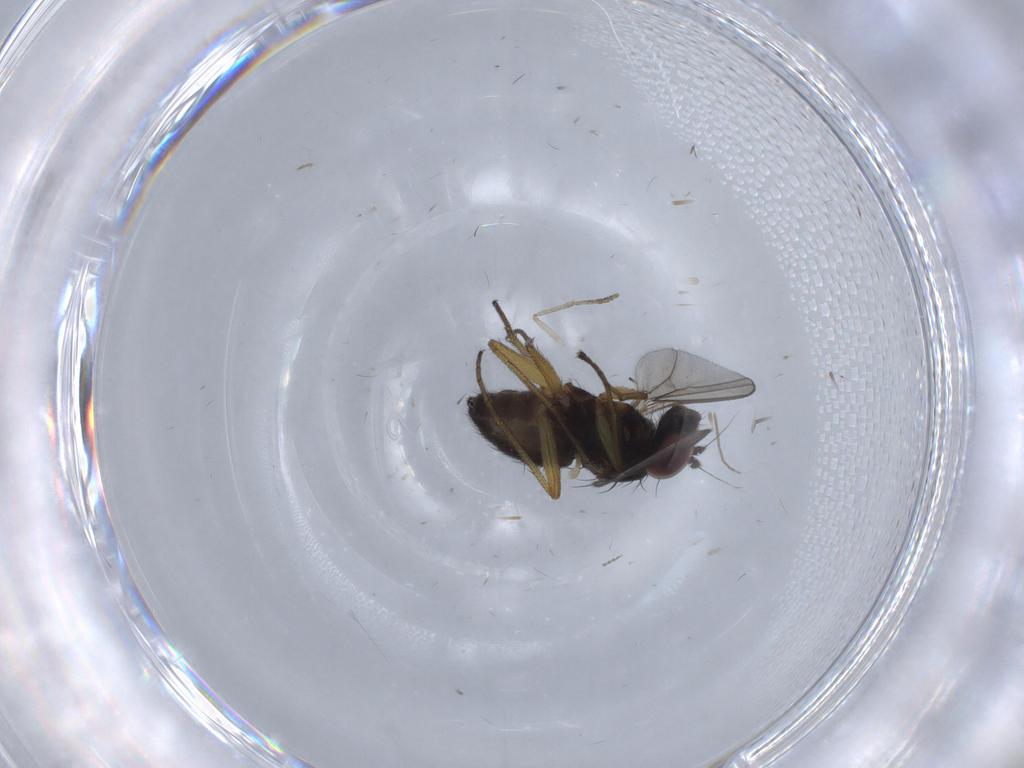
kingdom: Animalia
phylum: Arthropoda
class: Insecta
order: Diptera
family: Dolichopodidae
